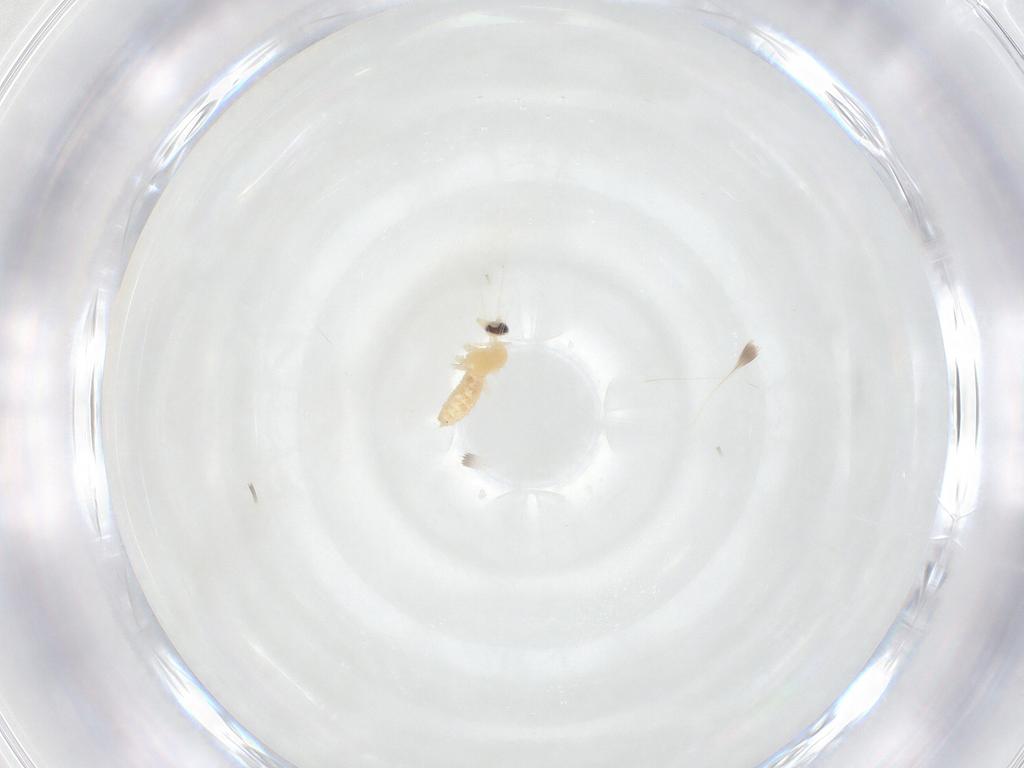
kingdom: Animalia
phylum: Arthropoda
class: Insecta
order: Diptera
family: Cecidomyiidae
